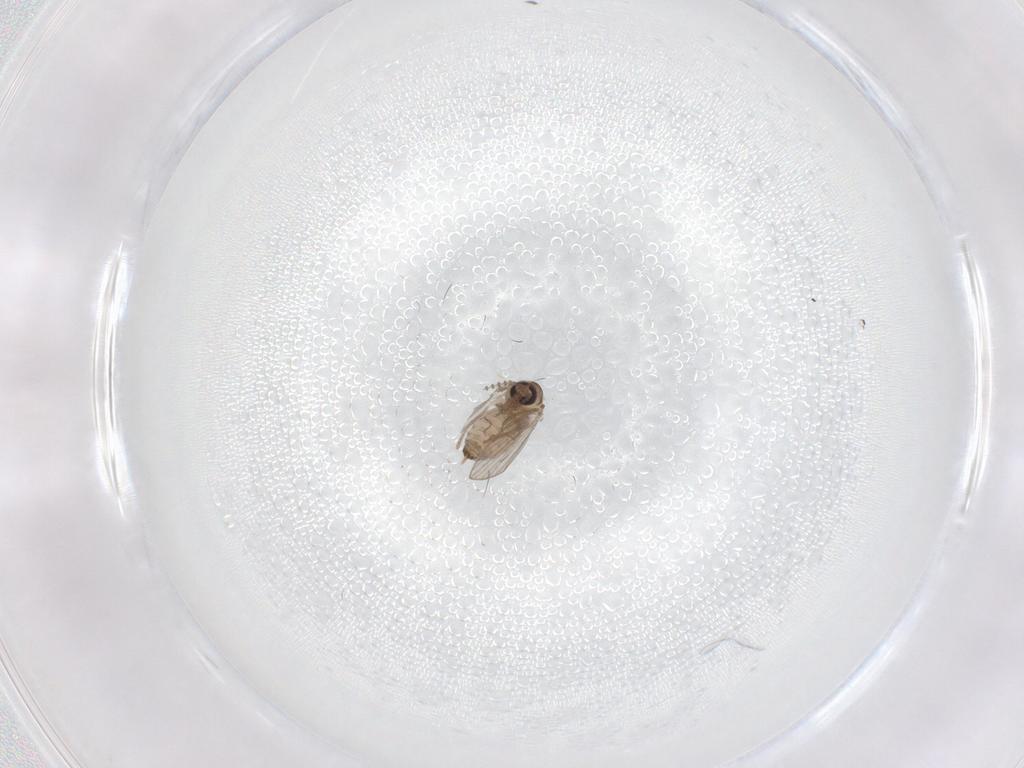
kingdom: Animalia
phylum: Arthropoda
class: Insecta
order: Diptera
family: Psychodidae
